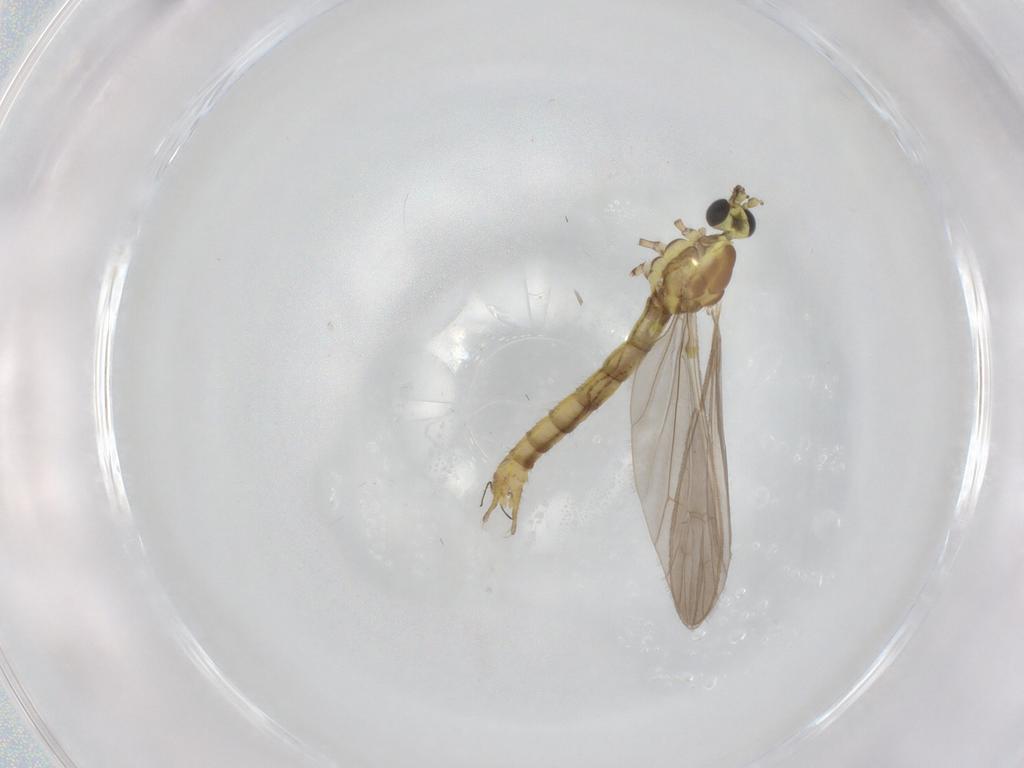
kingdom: Animalia
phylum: Arthropoda
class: Insecta
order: Diptera
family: Limoniidae
